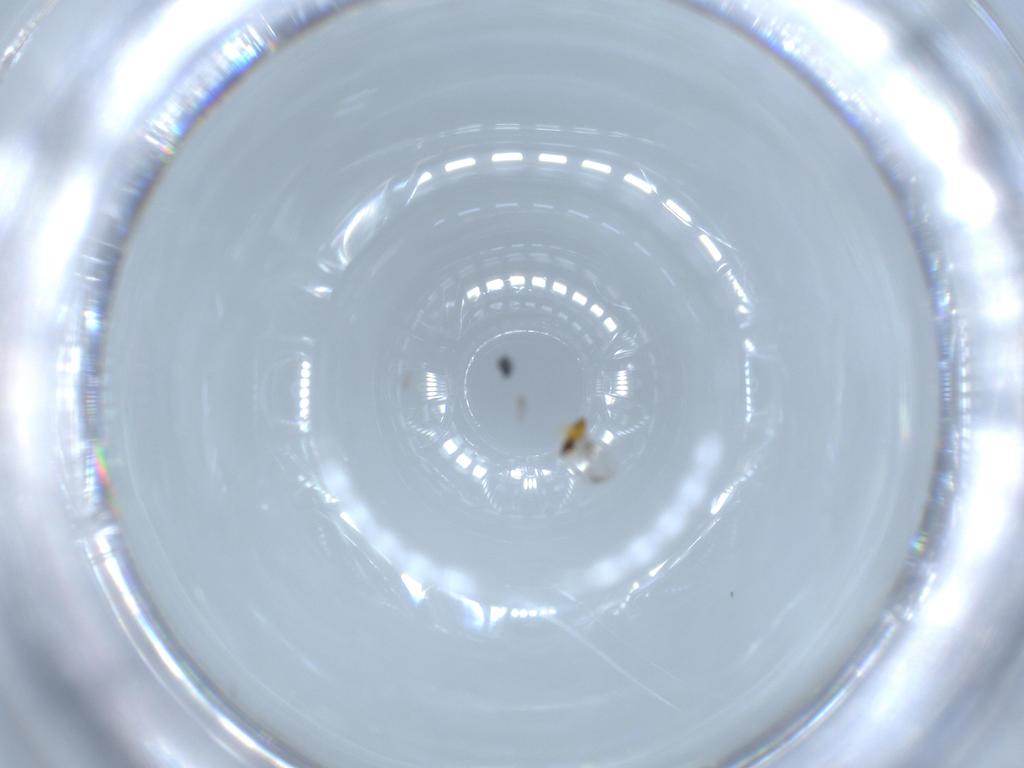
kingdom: Animalia
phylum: Arthropoda
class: Insecta
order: Hymenoptera
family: Trichogrammatidae
